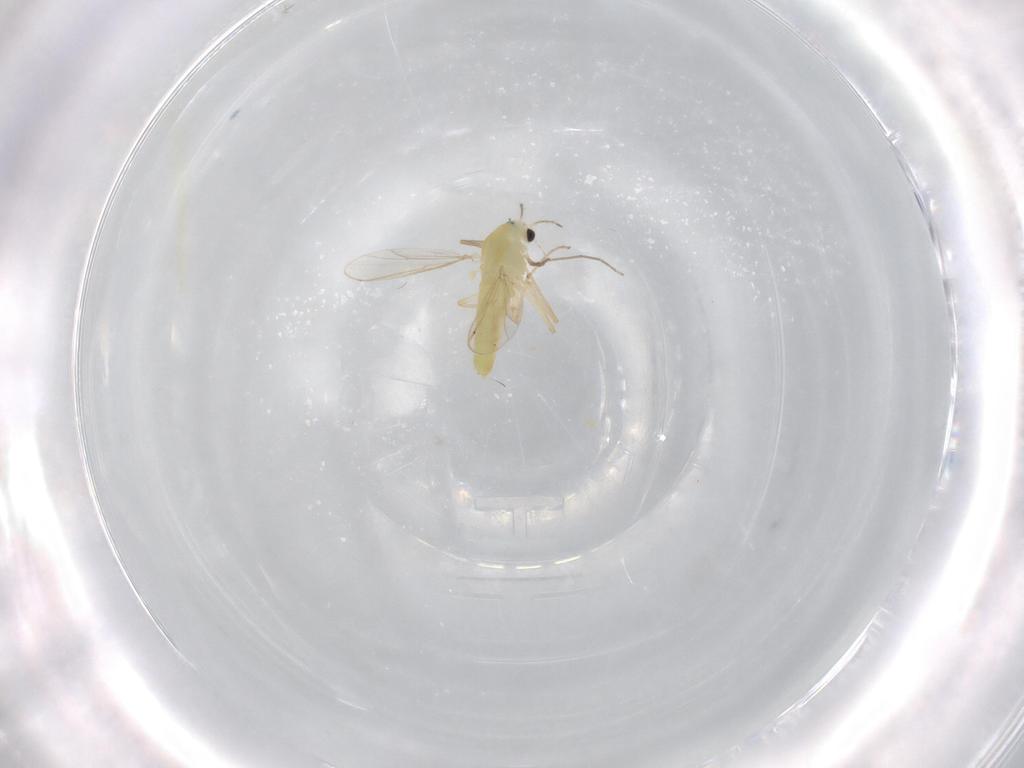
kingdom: Animalia
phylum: Arthropoda
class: Insecta
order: Diptera
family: Chironomidae
